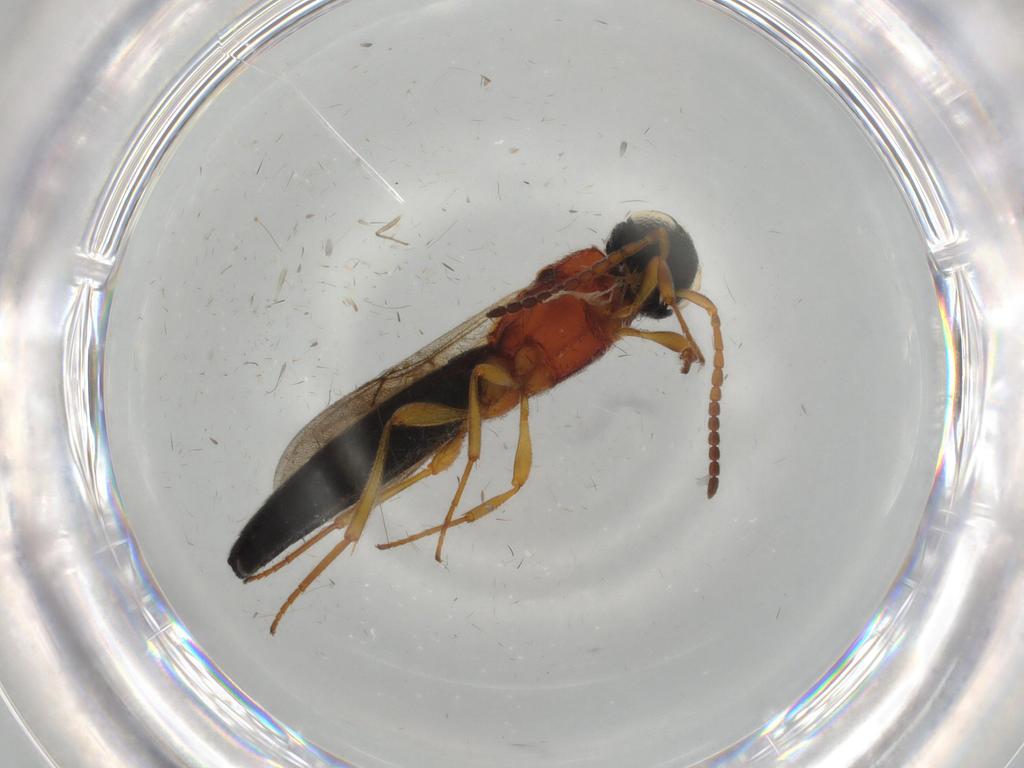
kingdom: Animalia
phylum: Arthropoda
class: Insecta
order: Hymenoptera
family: Scelionidae
